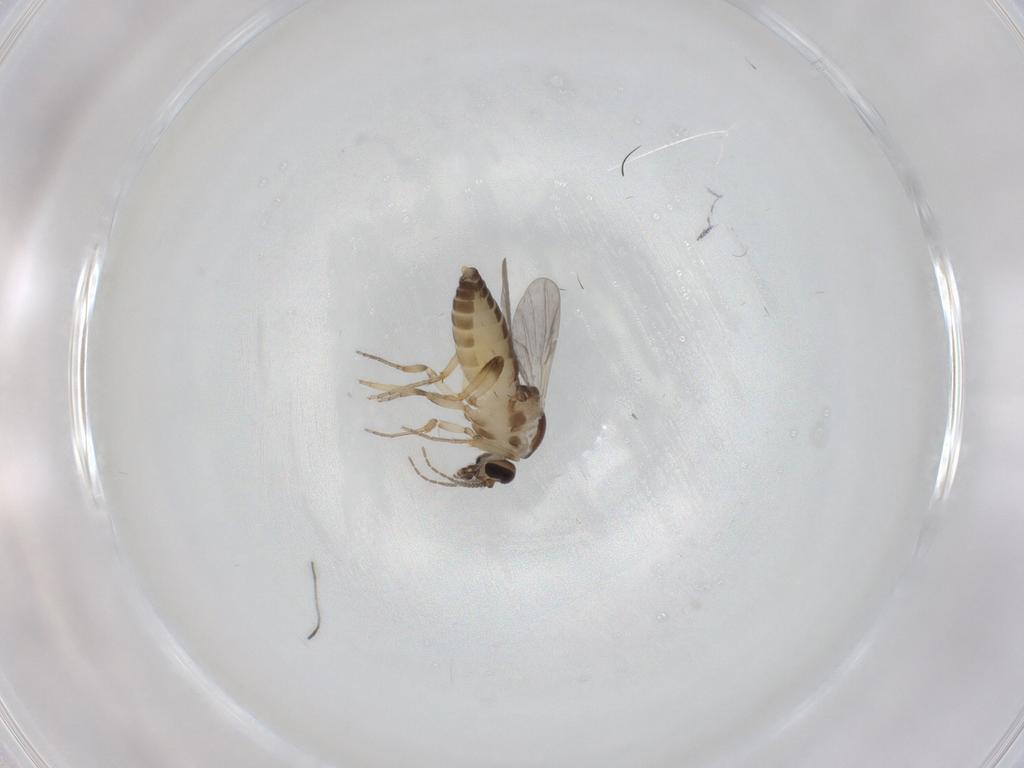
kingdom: Animalia
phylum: Arthropoda
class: Insecta
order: Diptera
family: Ceratopogonidae
